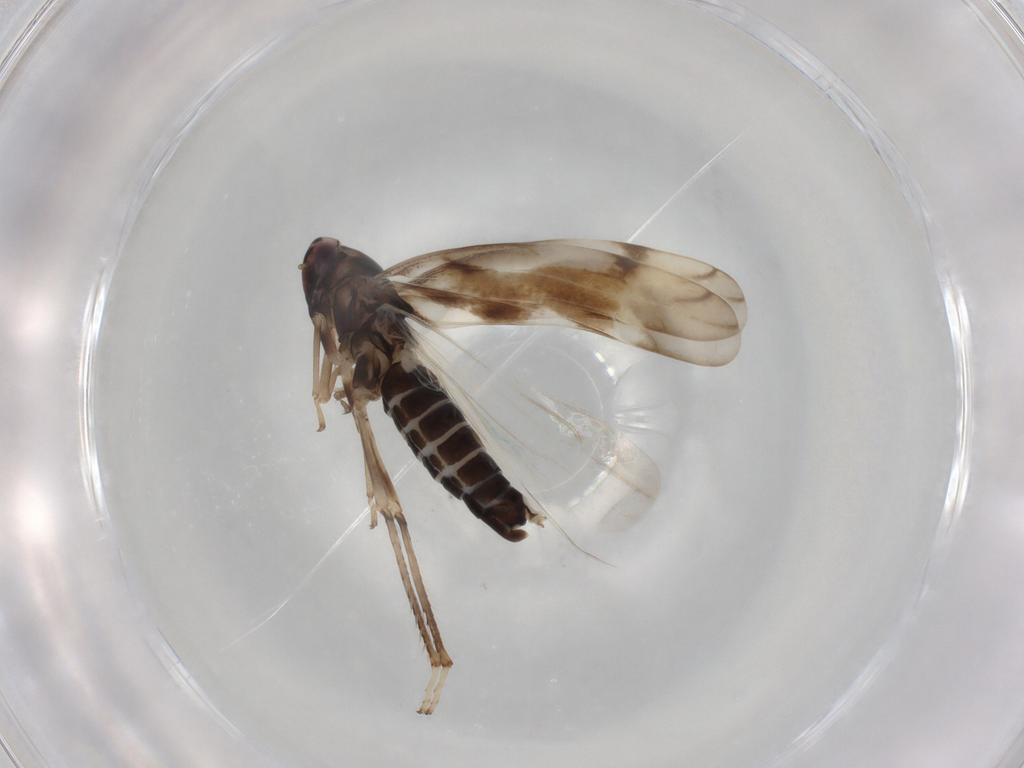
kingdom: Animalia
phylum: Arthropoda
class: Insecta
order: Hemiptera
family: Cicadellidae
